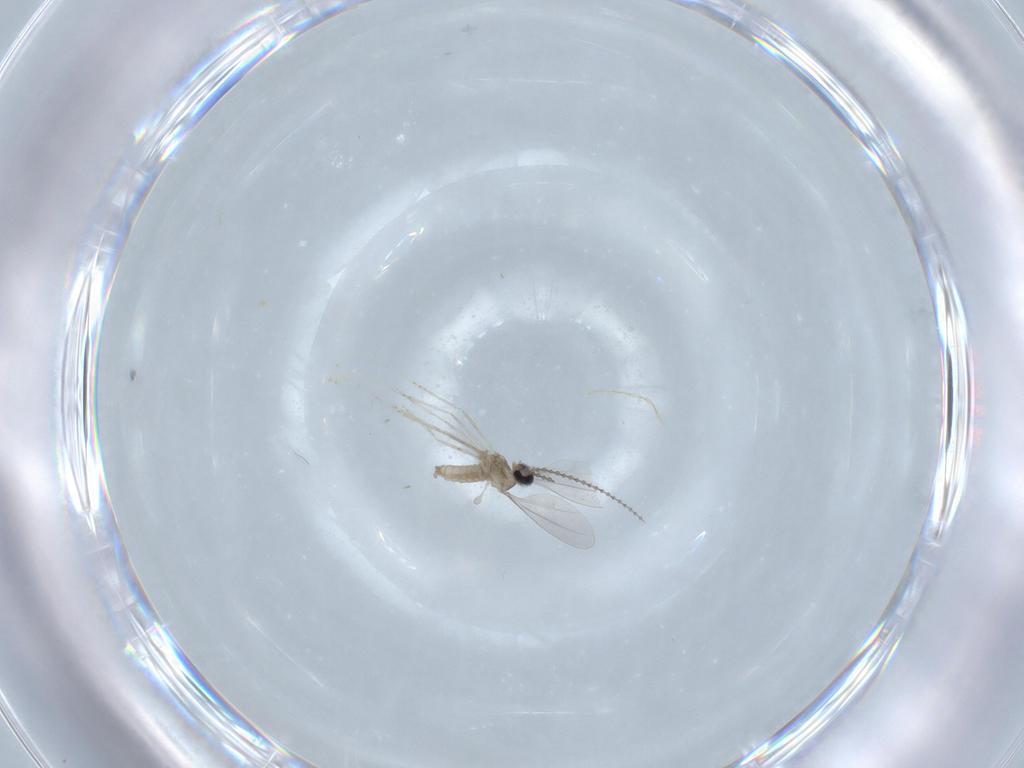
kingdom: Animalia
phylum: Arthropoda
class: Insecta
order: Diptera
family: Cecidomyiidae
